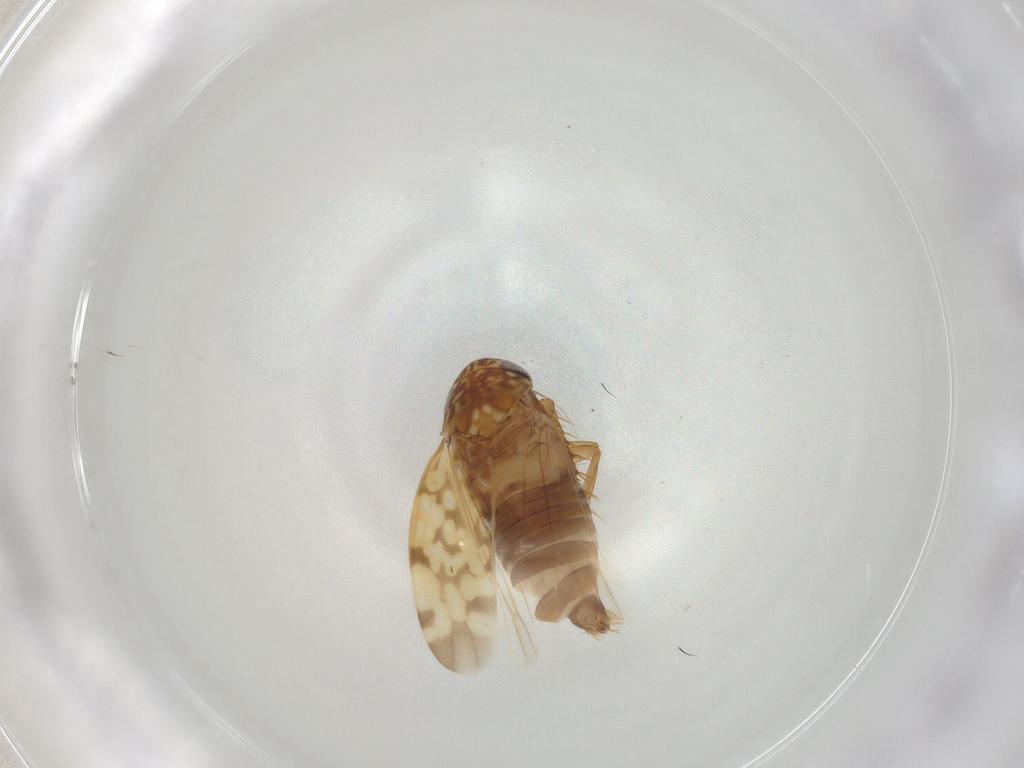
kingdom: Animalia
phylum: Arthropoda
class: Insecta
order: Hemiptera
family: Cicadellidae
